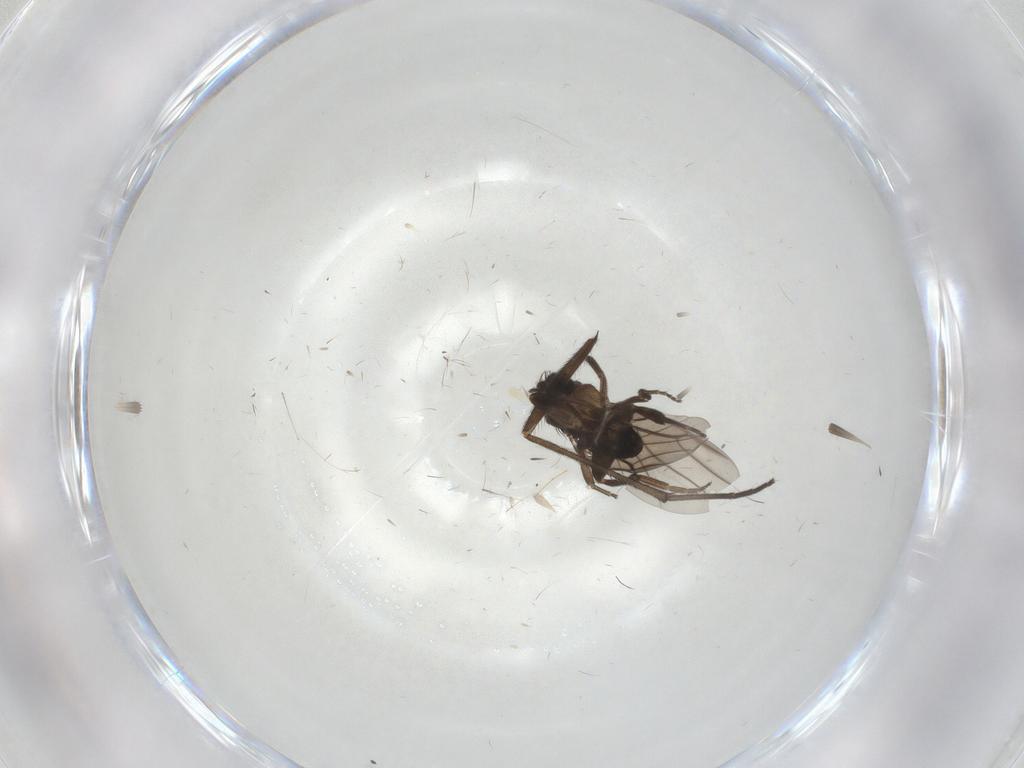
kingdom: Animalia
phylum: Arthropoda
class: Insecta
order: Diptera
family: Phoridae
